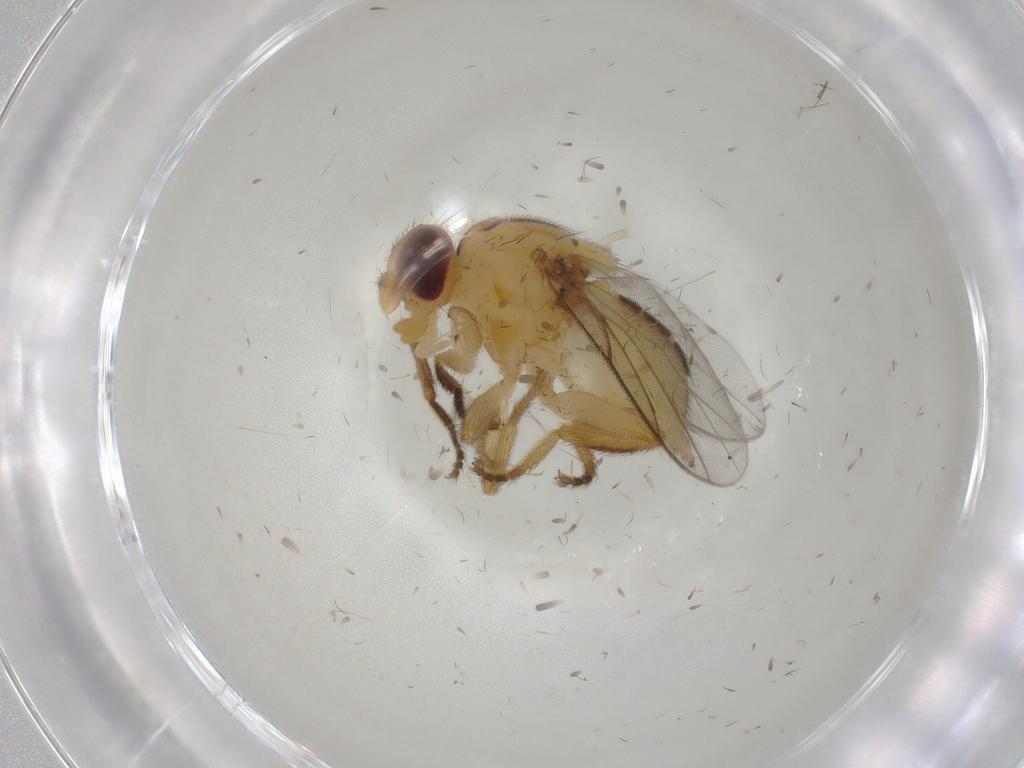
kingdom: Animalia
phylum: Arthropoda
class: Insecta
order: Diptera
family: Chloropidae
